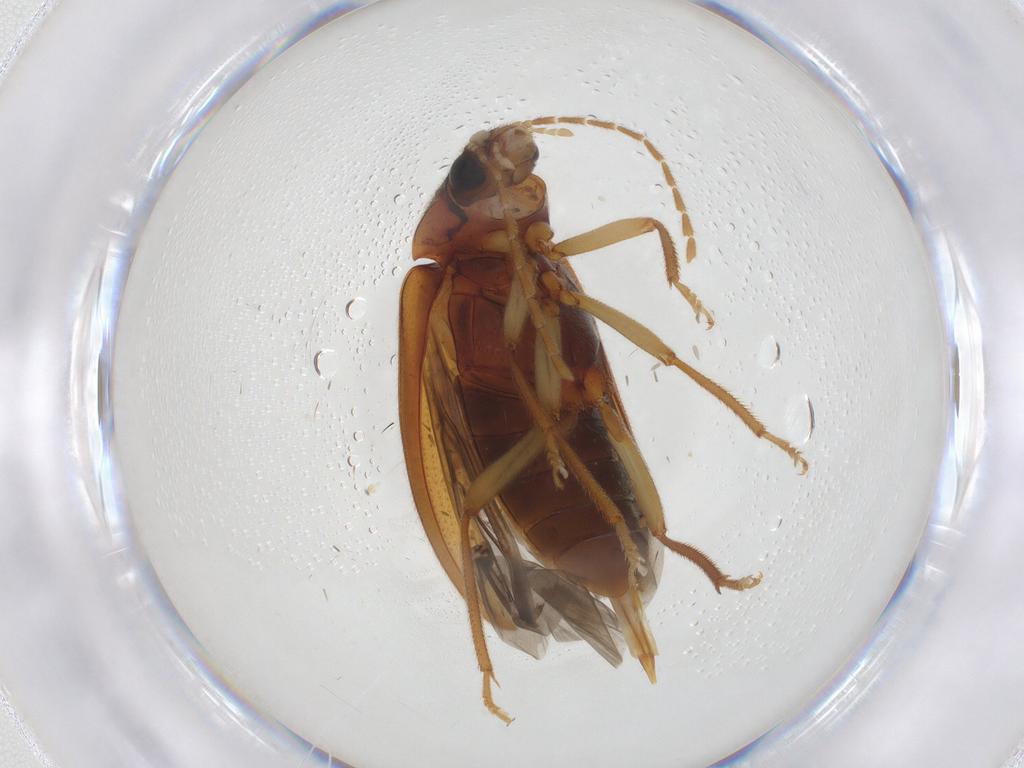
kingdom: Animalia
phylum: Arthropoda
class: Insecta
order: Coleoptera
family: Ptilodactylidae
